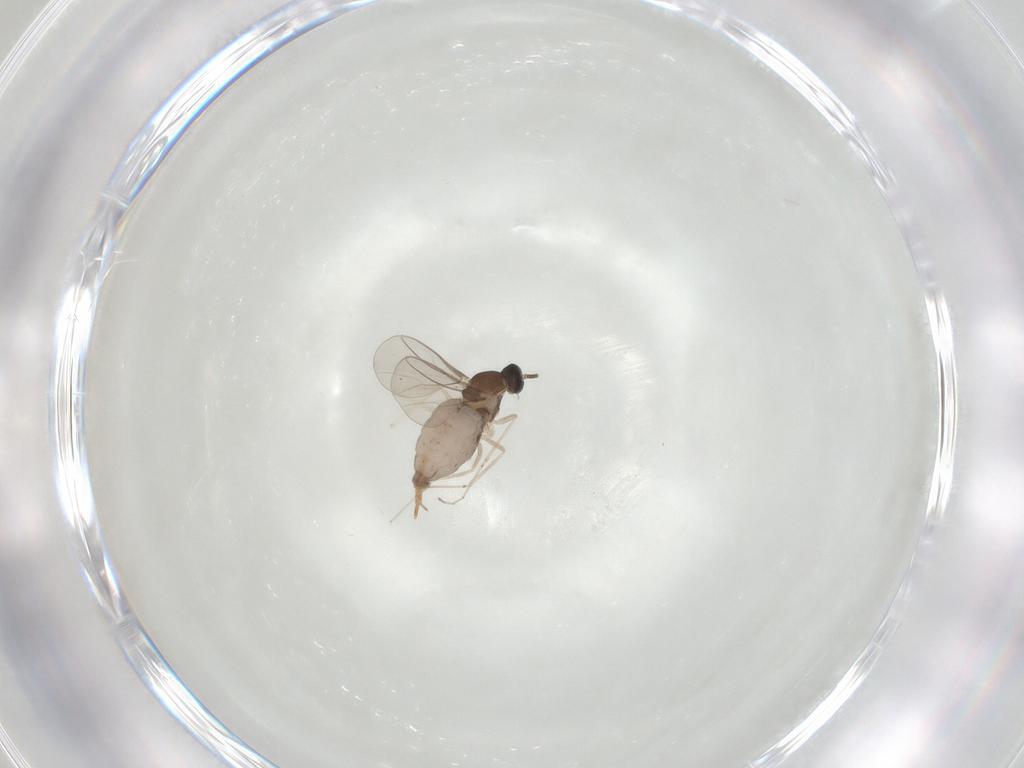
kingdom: Animalia
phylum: Arthropoda
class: Insecta
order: Diptera
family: Cecidomyiidae
